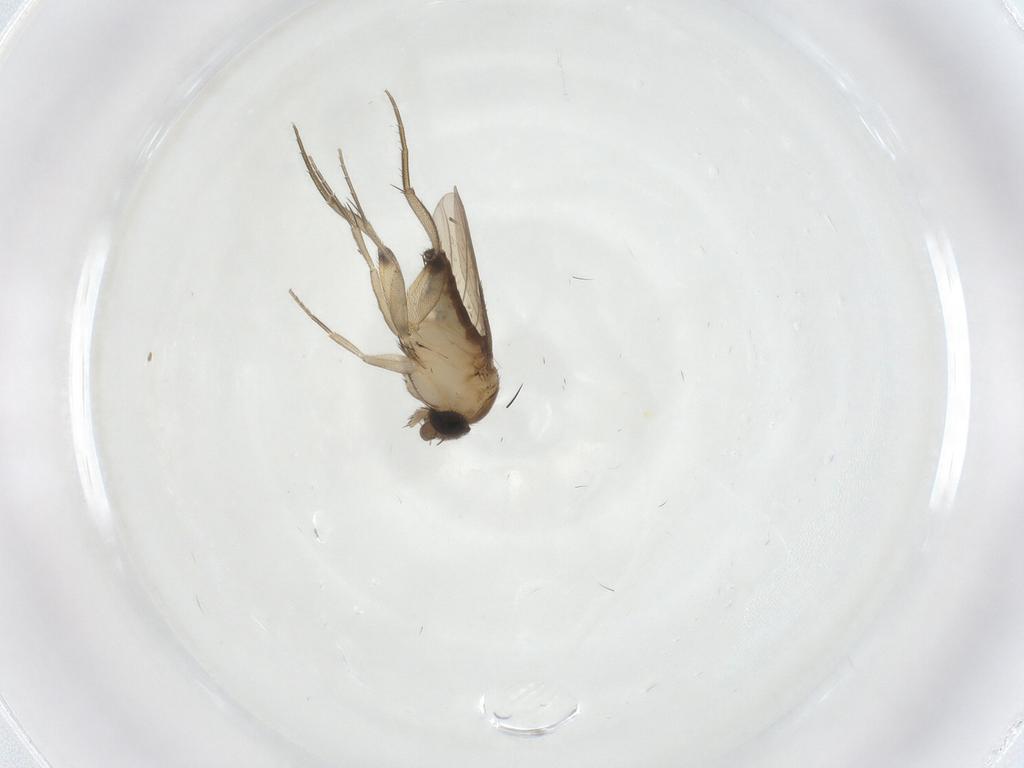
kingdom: Animalia
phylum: Arthropoda
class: Insecta
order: Diptera
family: Phoridae
